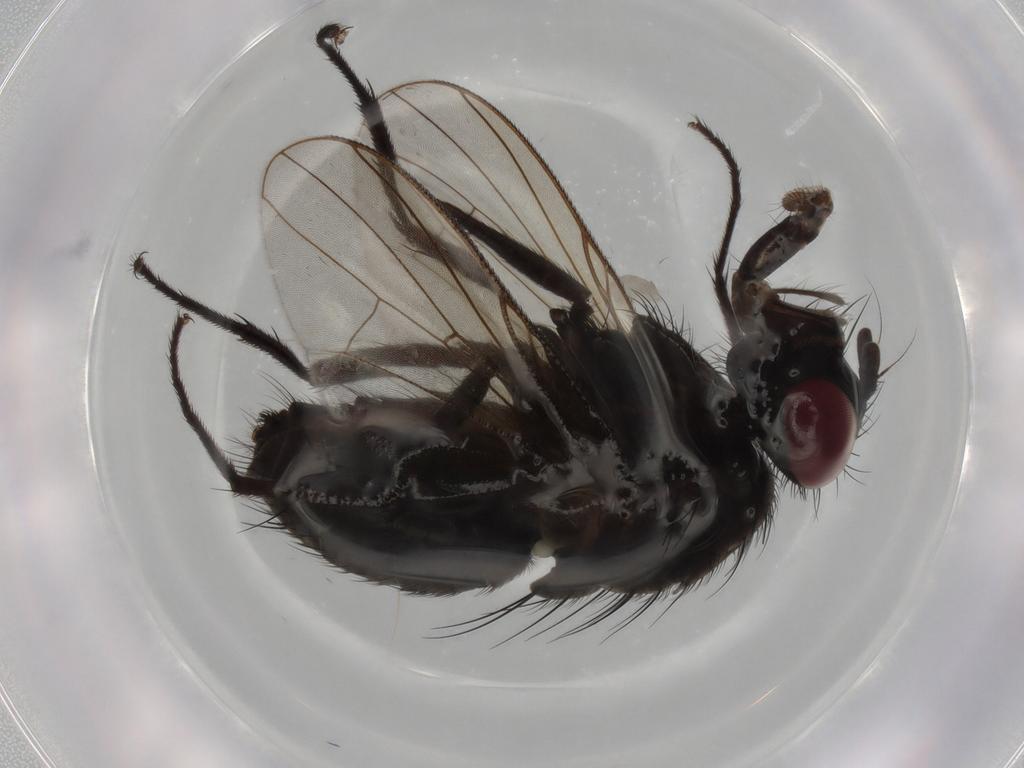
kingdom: Animalia
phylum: Arthropoda
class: Insecta
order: Diptera
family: Muscidae
